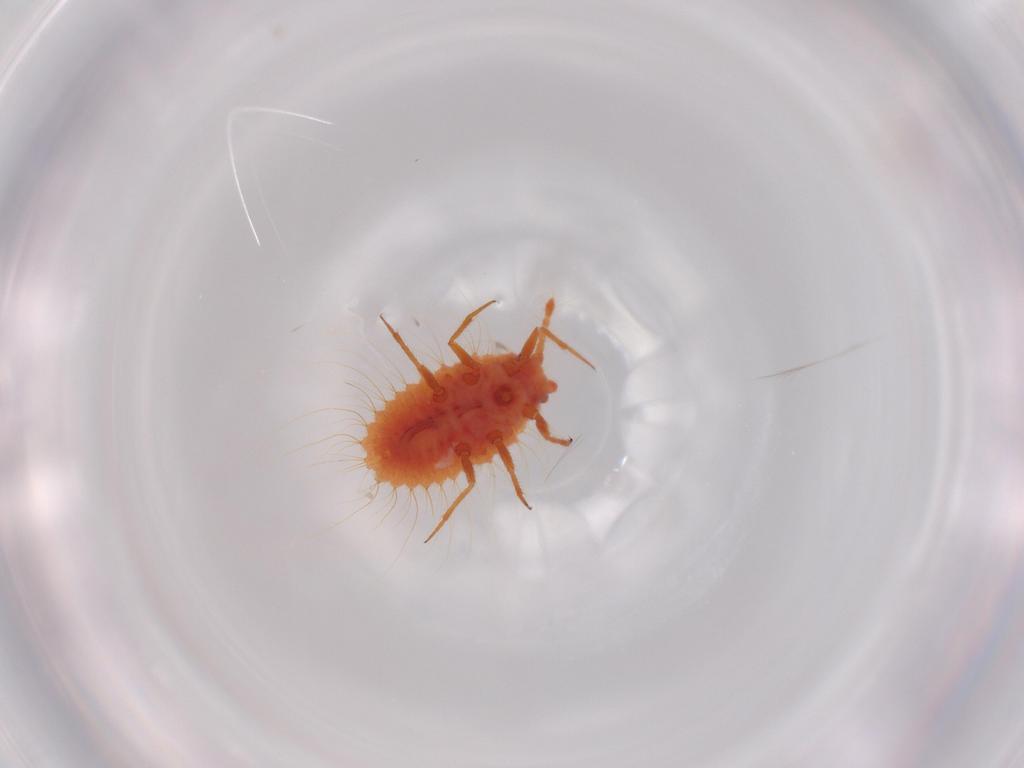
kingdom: Animalia
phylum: Arthropoda
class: Insecta
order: Hemiptera
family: Coccoidea_incertae_sedis
